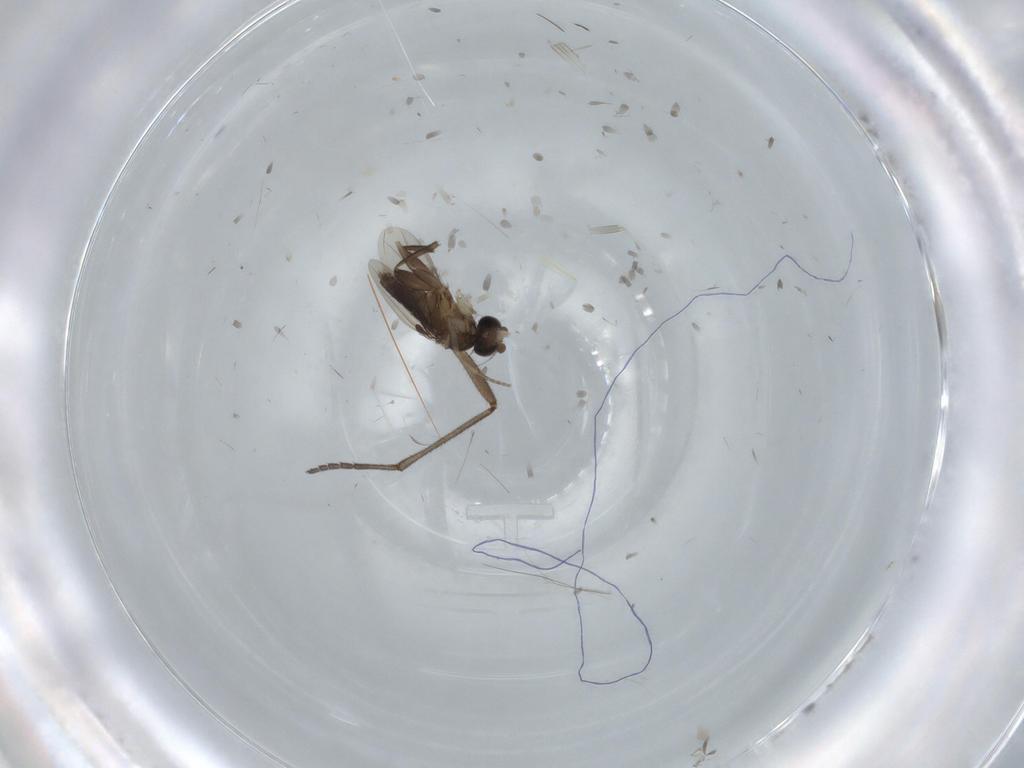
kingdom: Animalia
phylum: Arthropoda
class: Insecta
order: Diptera
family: Phoridae
